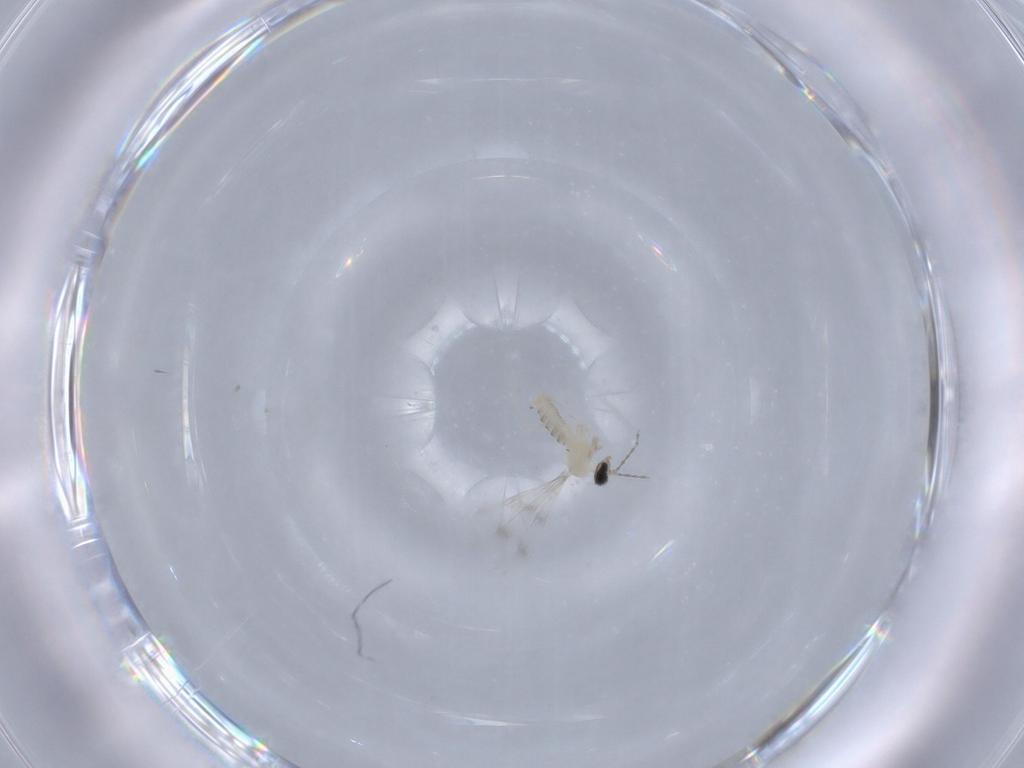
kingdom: Animalia
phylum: Arthropoda
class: Insecta
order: Diptera
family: Cecidomyiidae
